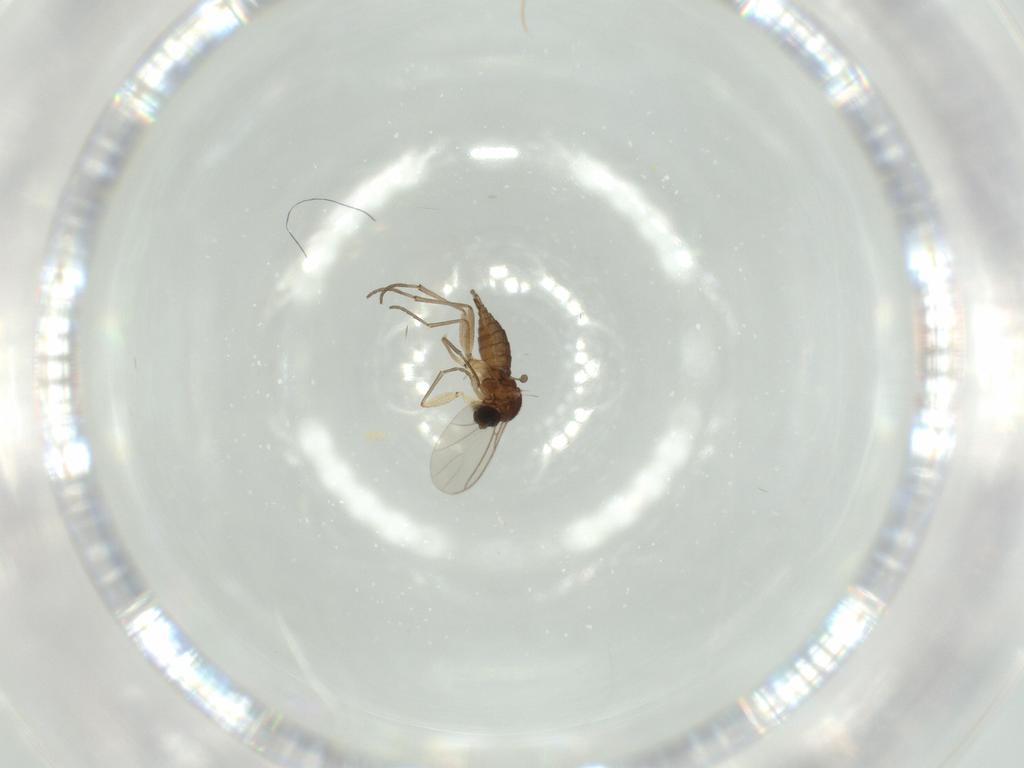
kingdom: Animalia
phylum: Arthropoda
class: Insecta
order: Diptera
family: Sciaridae
